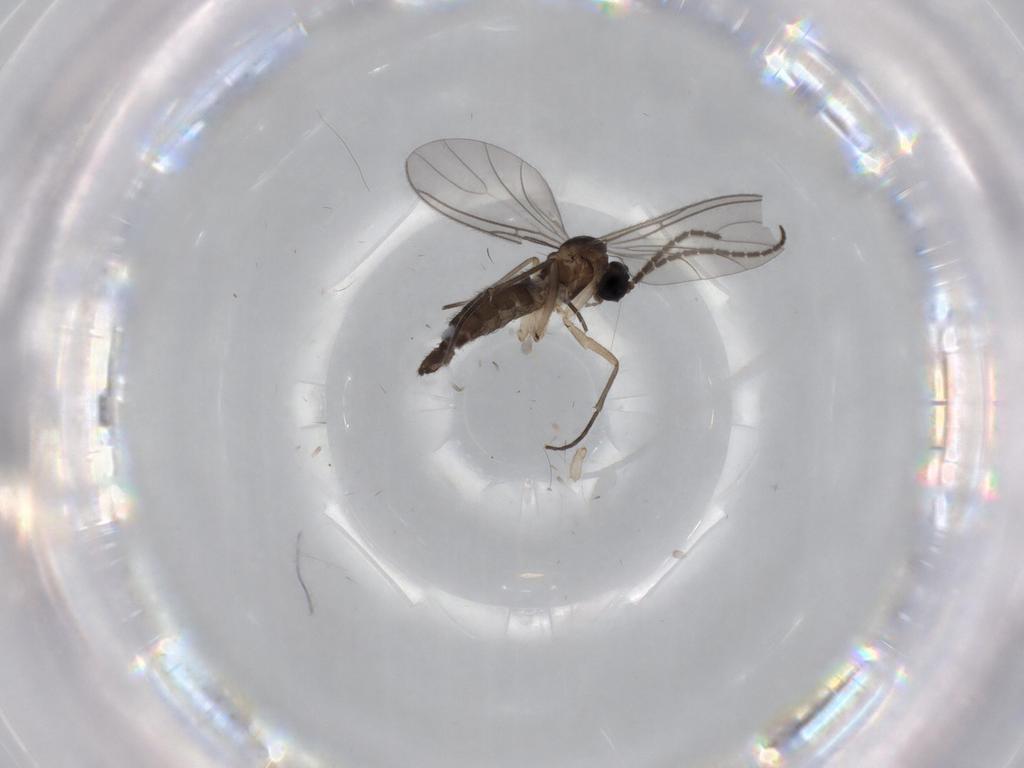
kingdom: Animalia
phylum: Arthropoda
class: Insecta
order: Diptera
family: Sciaridae
